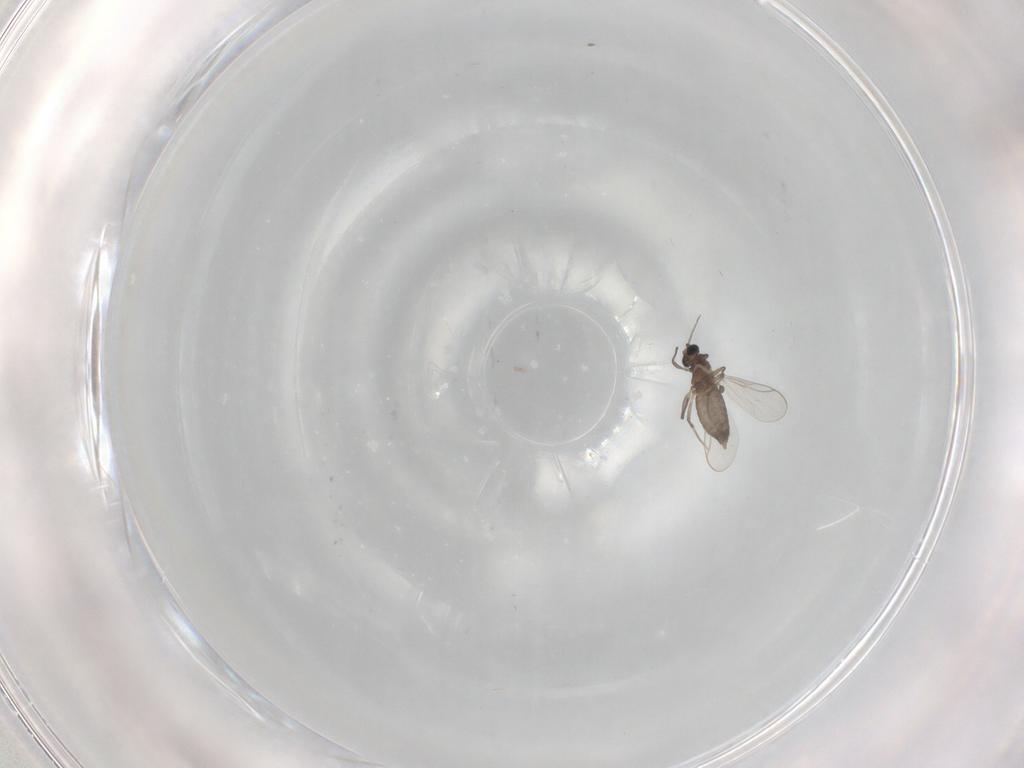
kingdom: Animalia
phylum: Arthropoda
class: Insecta
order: Diptera
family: Chironomidae
